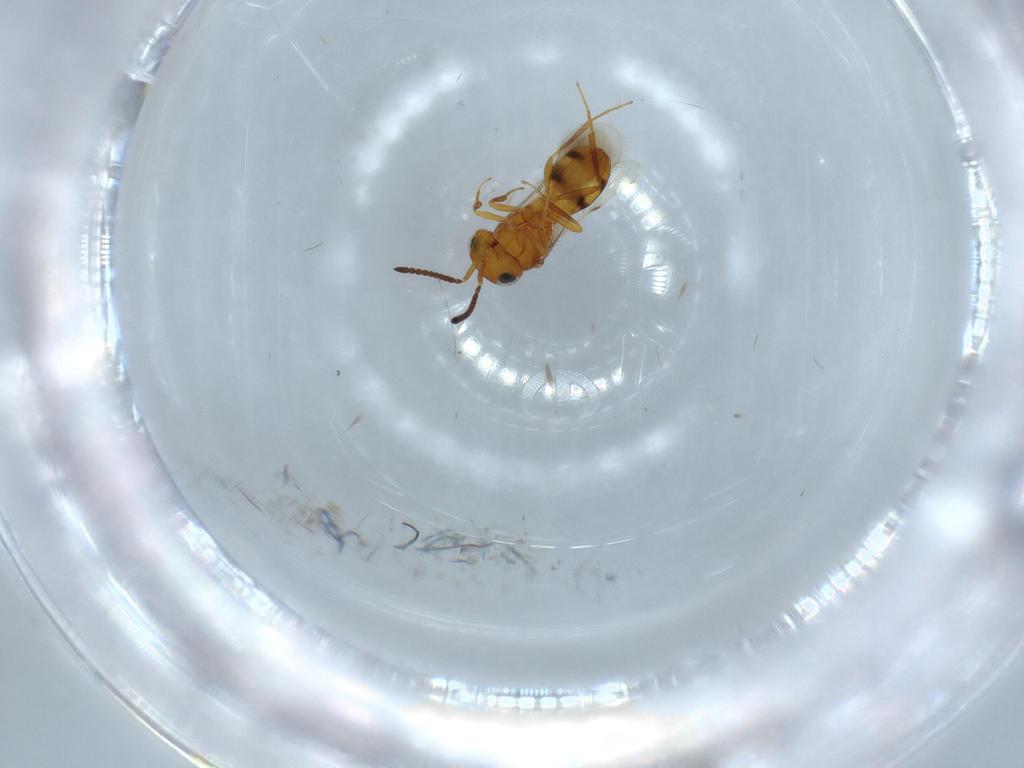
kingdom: Animalia
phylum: Arthropoda
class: Insecta
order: Hymenoptera
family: Scelionidae
